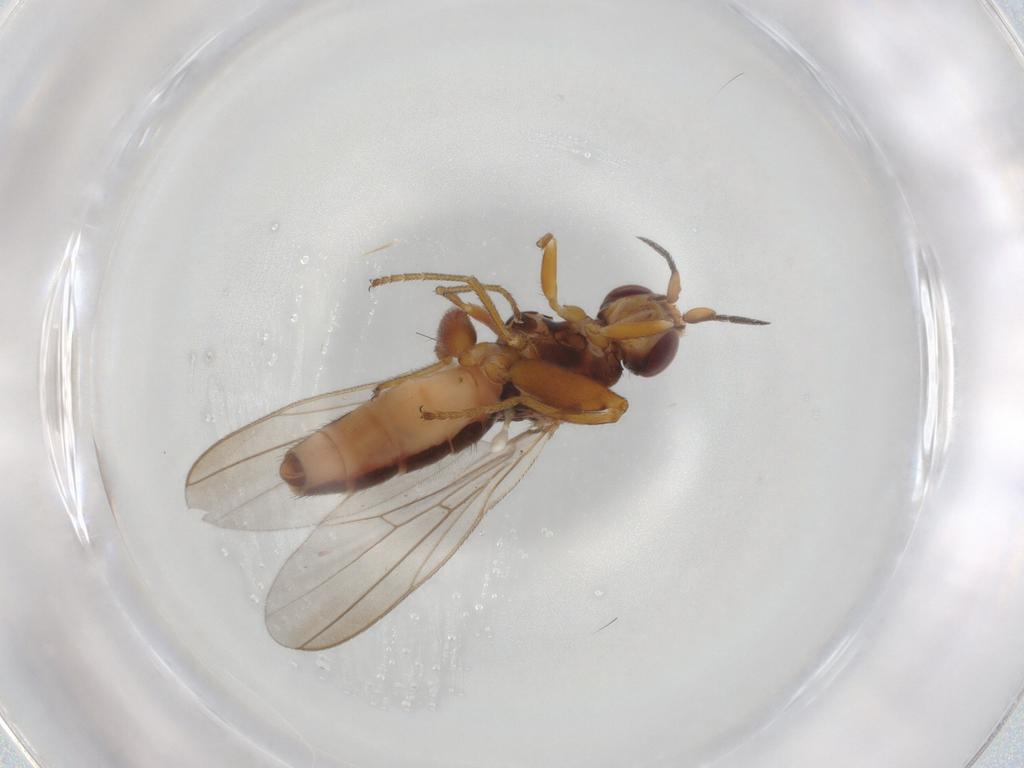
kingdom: Animalia
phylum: Arthropoda
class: Insecta
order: Diptera
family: Chloropidae
